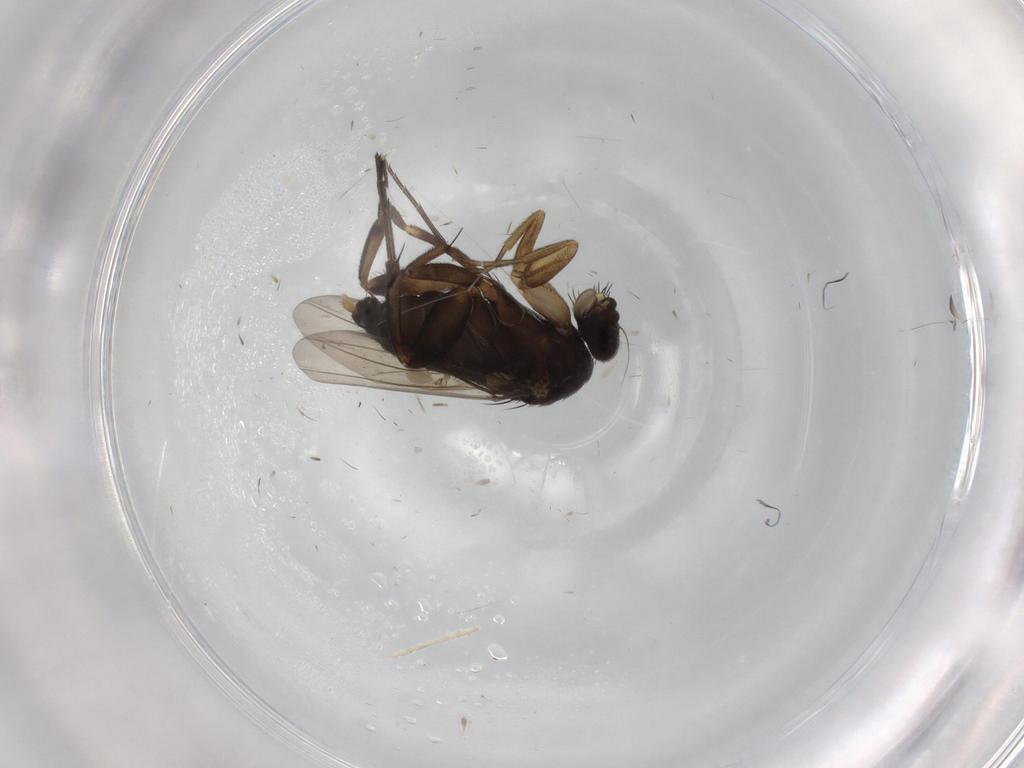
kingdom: Animalia
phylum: Arthropoda
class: Insecta
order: Diptera
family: Phoridae
